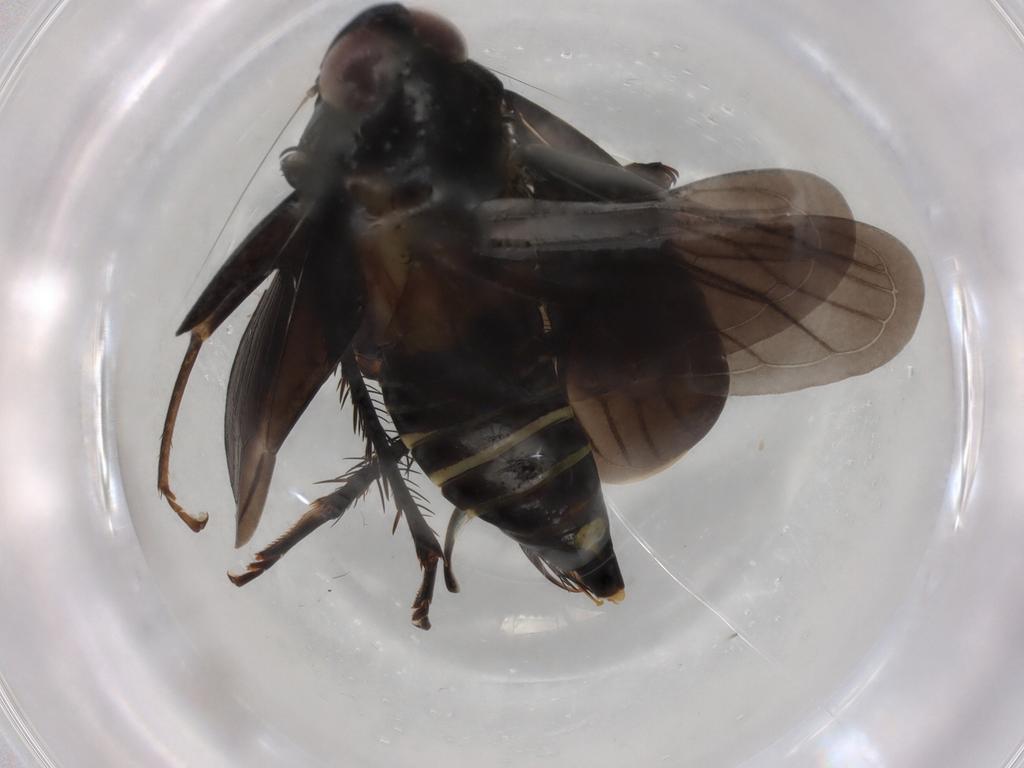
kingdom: Animalia
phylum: Arthropoda
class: Insecta
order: Hemiptera
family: Cicadellidae
